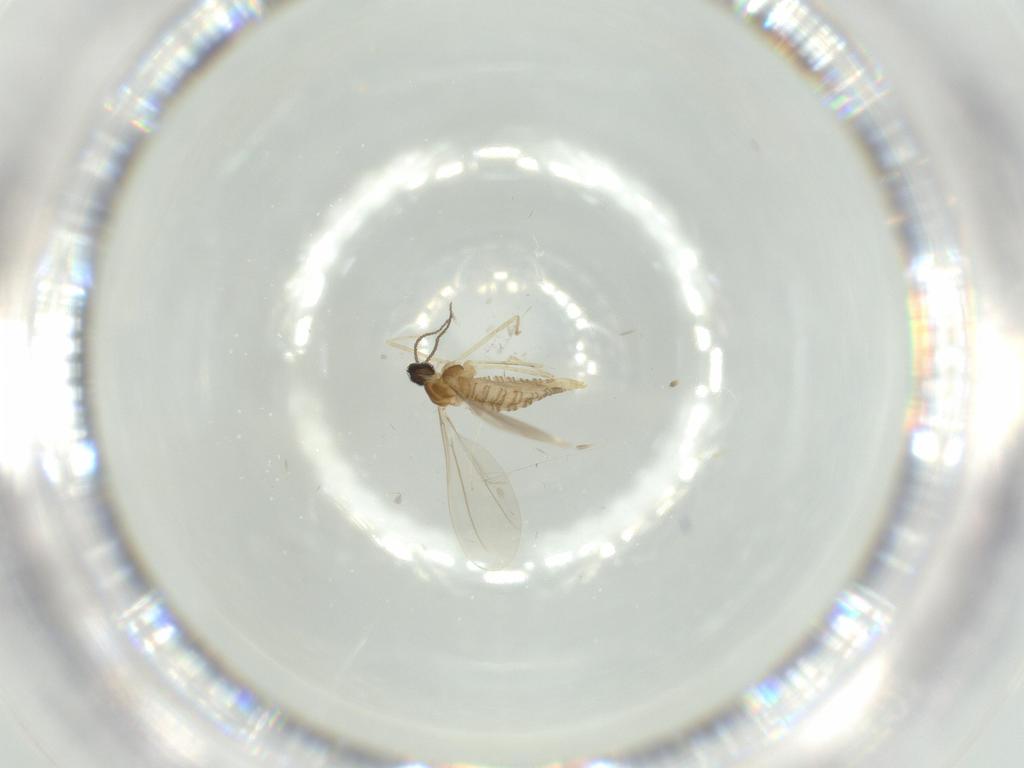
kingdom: Animalia
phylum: Arthropoda
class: Insecta
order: Diptera
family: Cecidomyiidae
